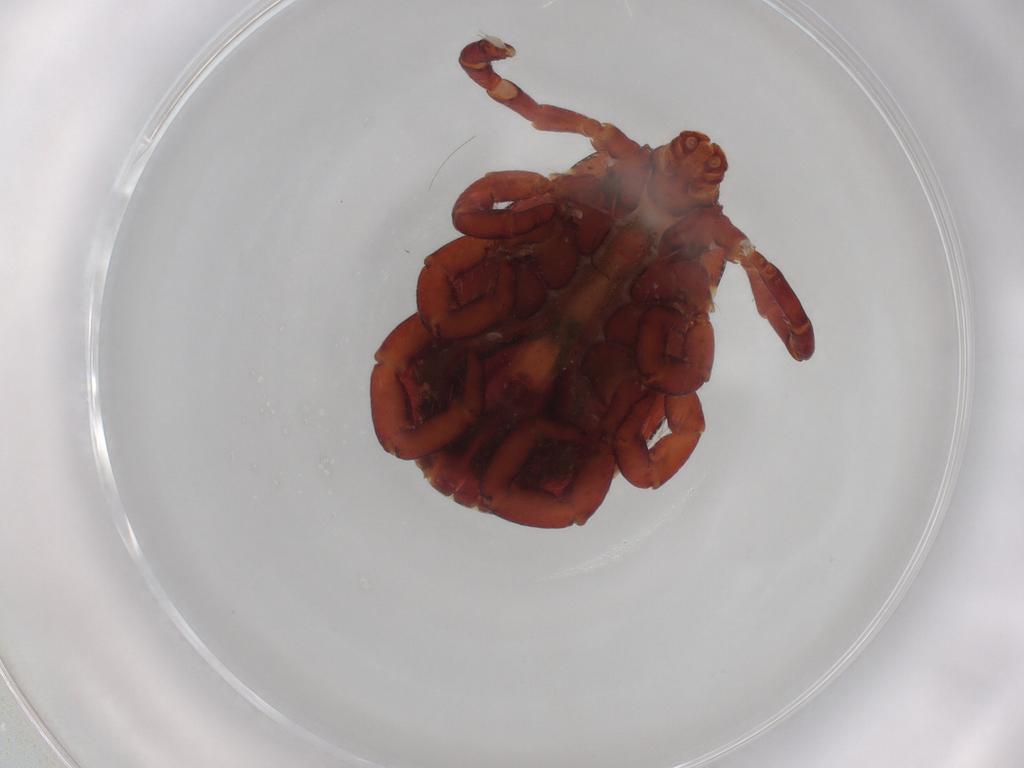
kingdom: Animalia
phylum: Arthropoda
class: Arachnida
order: Ixodida
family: Ixodidae
